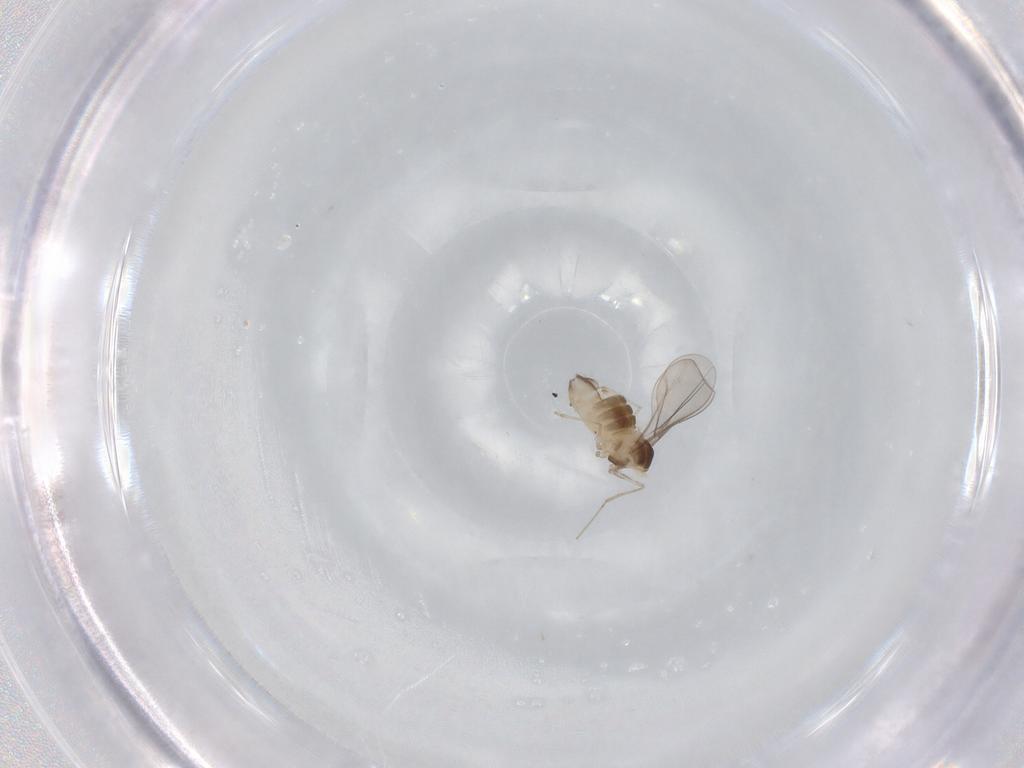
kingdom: Animalia
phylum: Arthropoda
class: Insecta
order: Diptera
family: Cecidomyiidae
